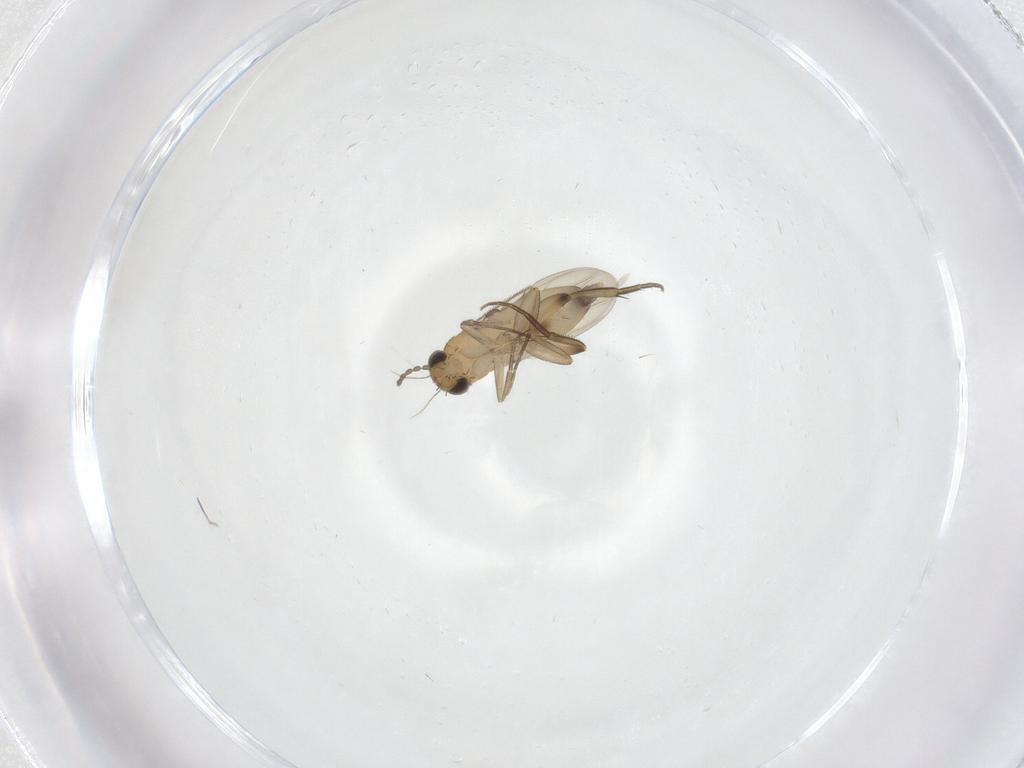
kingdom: Animalia
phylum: Arthropoda
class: Insecta
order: Diptera
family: Phoridae
